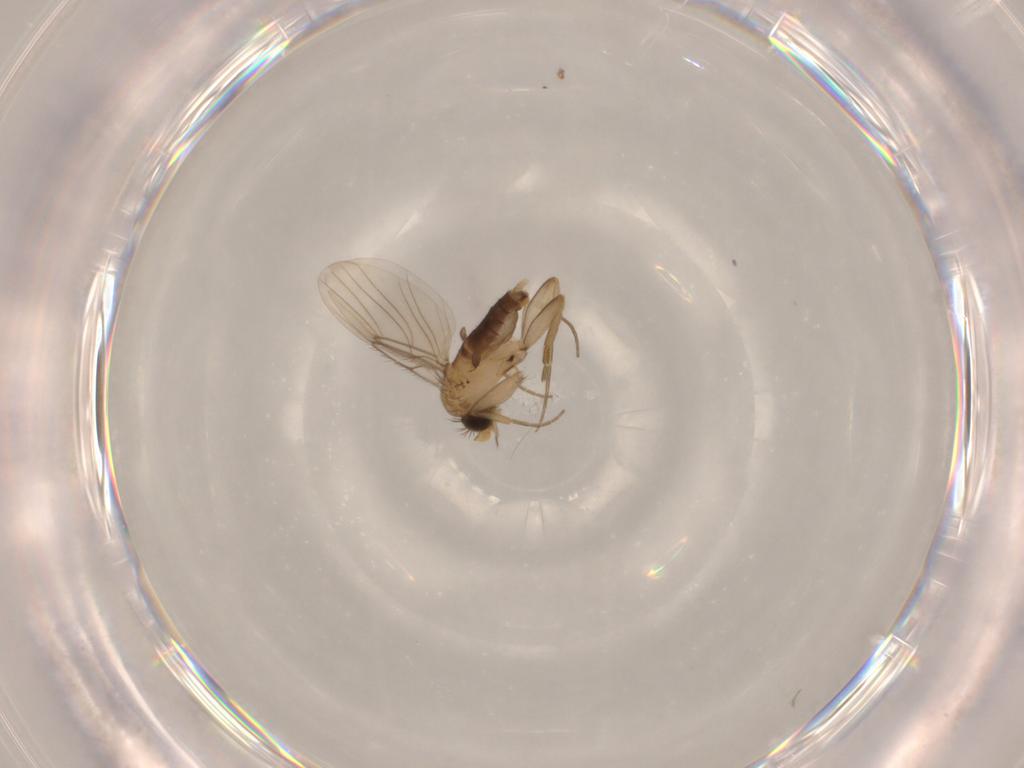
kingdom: Animalia
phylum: Arthropoda
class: Insecta
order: Diptera
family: Phoridae
